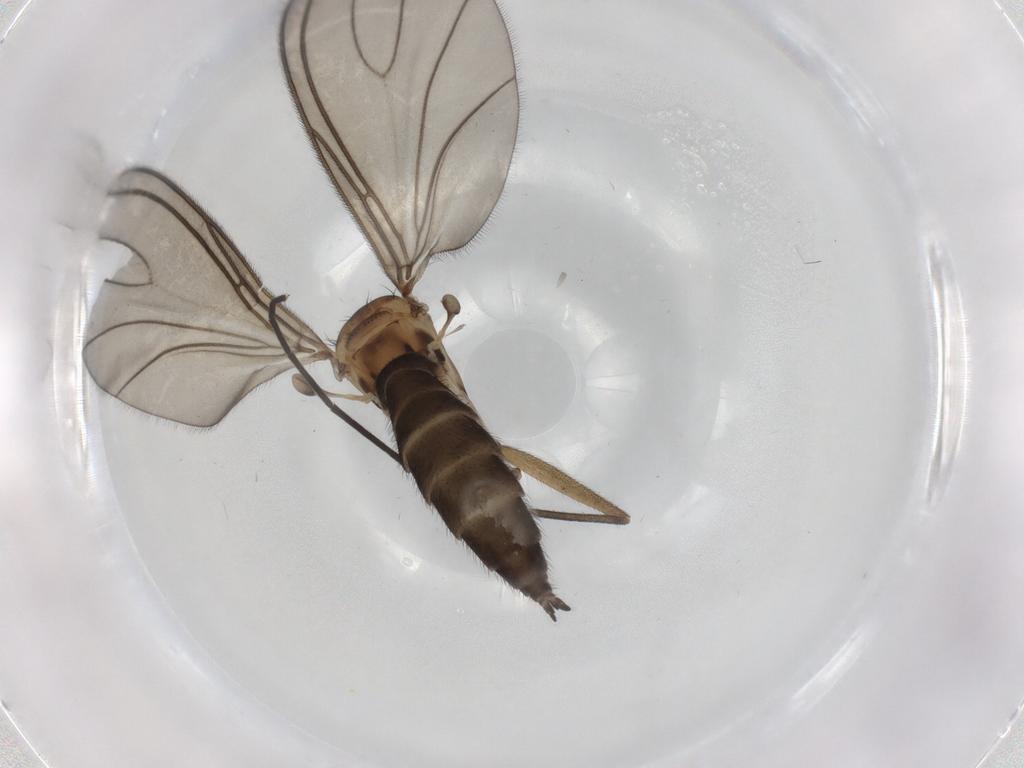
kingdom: Animalia
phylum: Arthropoda
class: Insecta
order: Diptera
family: Sciaridae
